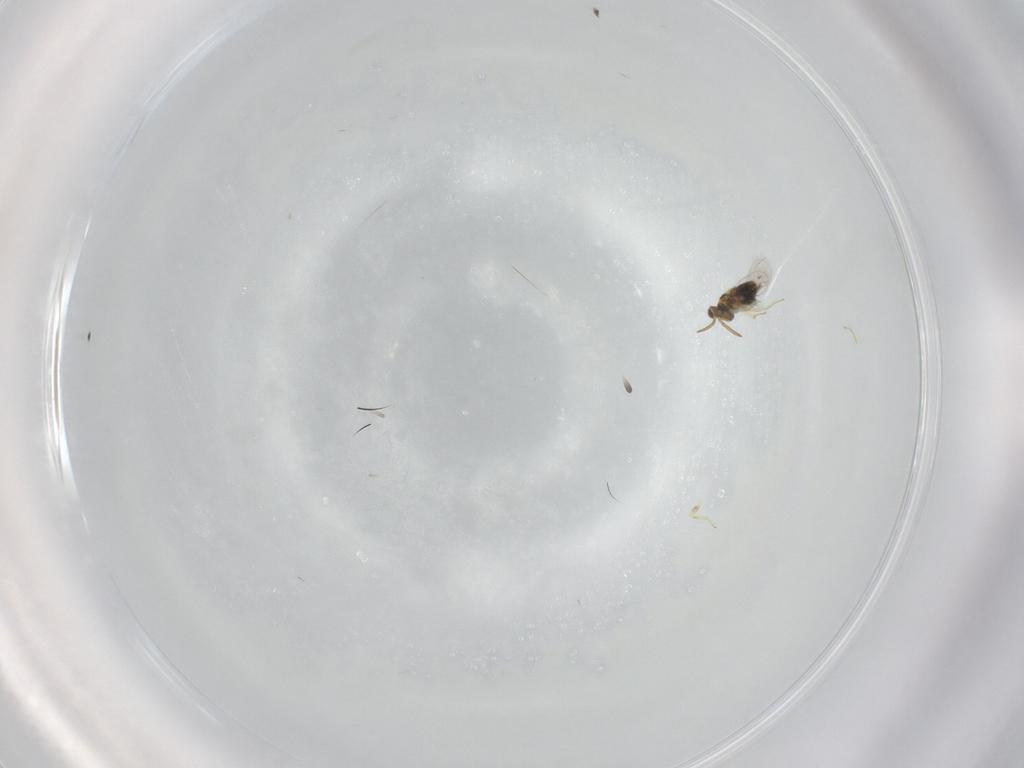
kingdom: Animalia
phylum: Arthropoda
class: Insecta
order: Hymenoptera
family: Aphelinidae
